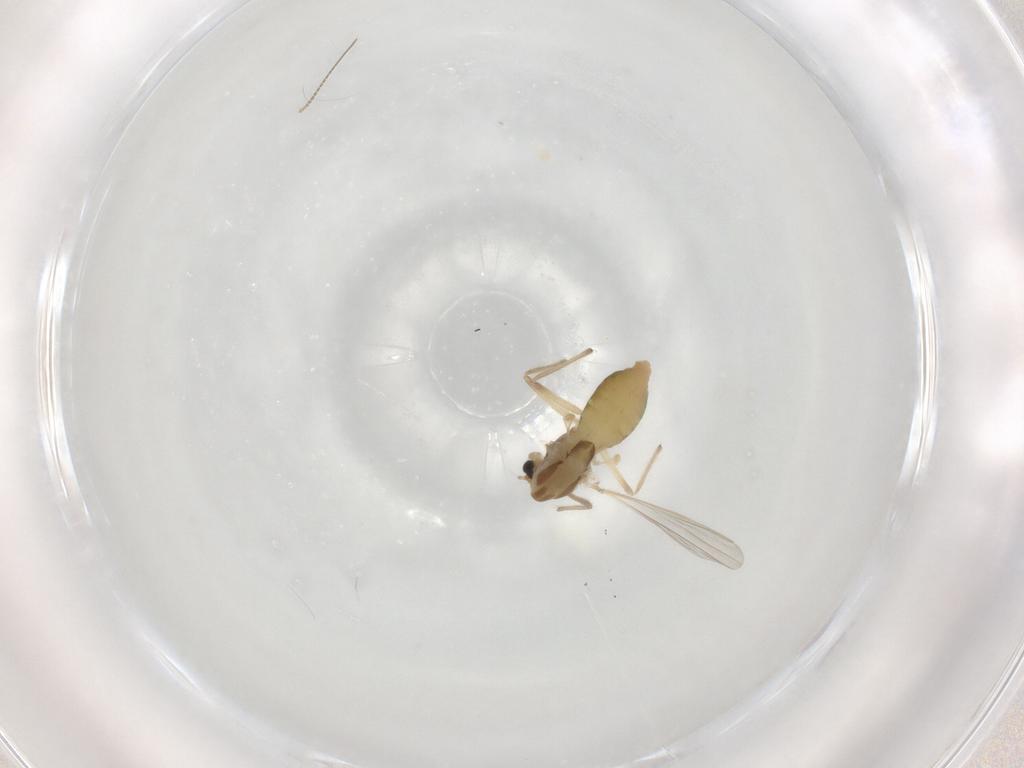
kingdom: Animalia
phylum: Arthropoda
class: Insecta
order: Diptera
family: Chironomidae
